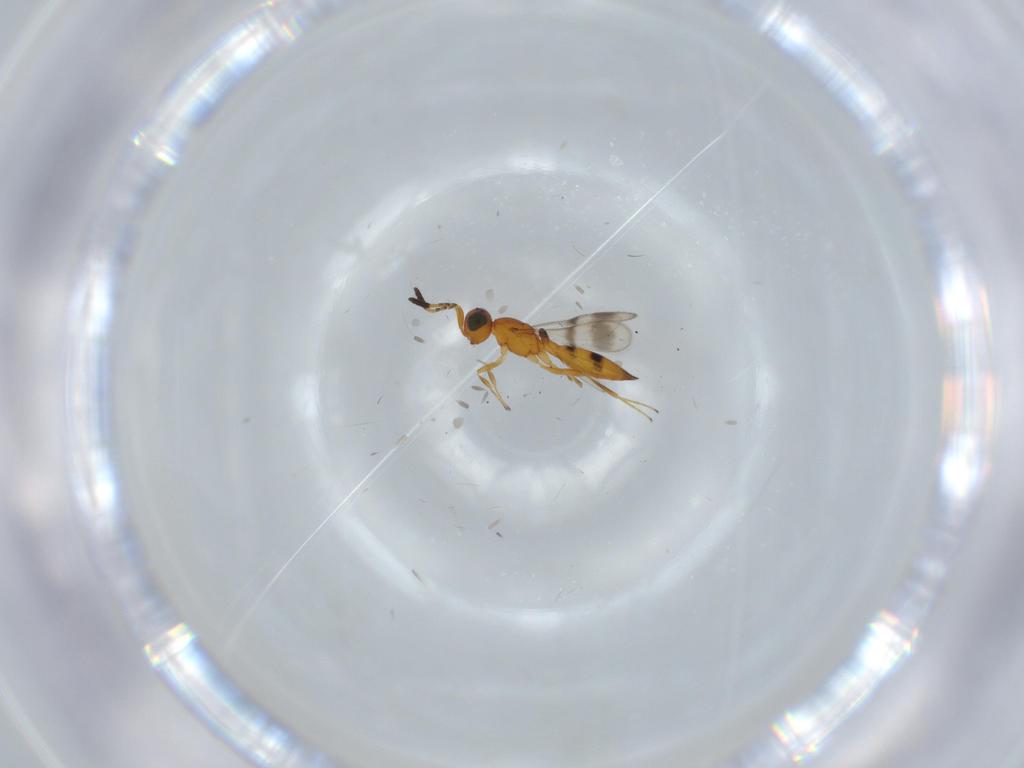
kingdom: Animalia
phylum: Arthropoda
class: Insecta
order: Hymenoptera
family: Scelionidae
